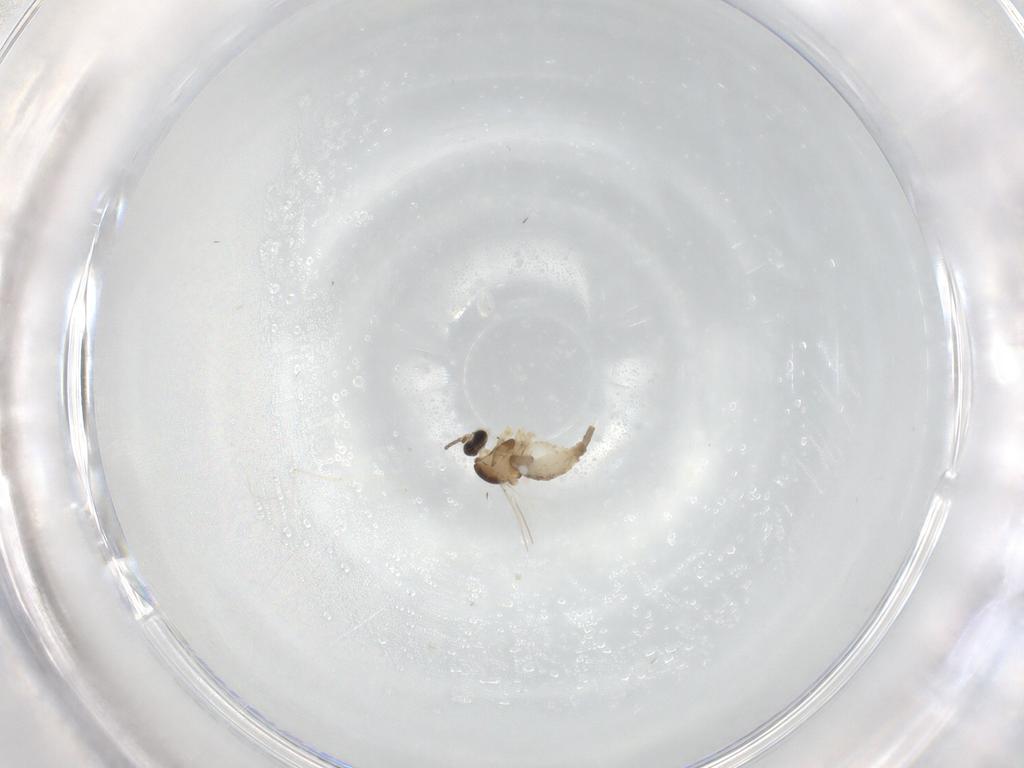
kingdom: Animalia
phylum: Arthropoda
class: Insecta
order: Diptera
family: Cecidomyiidae
